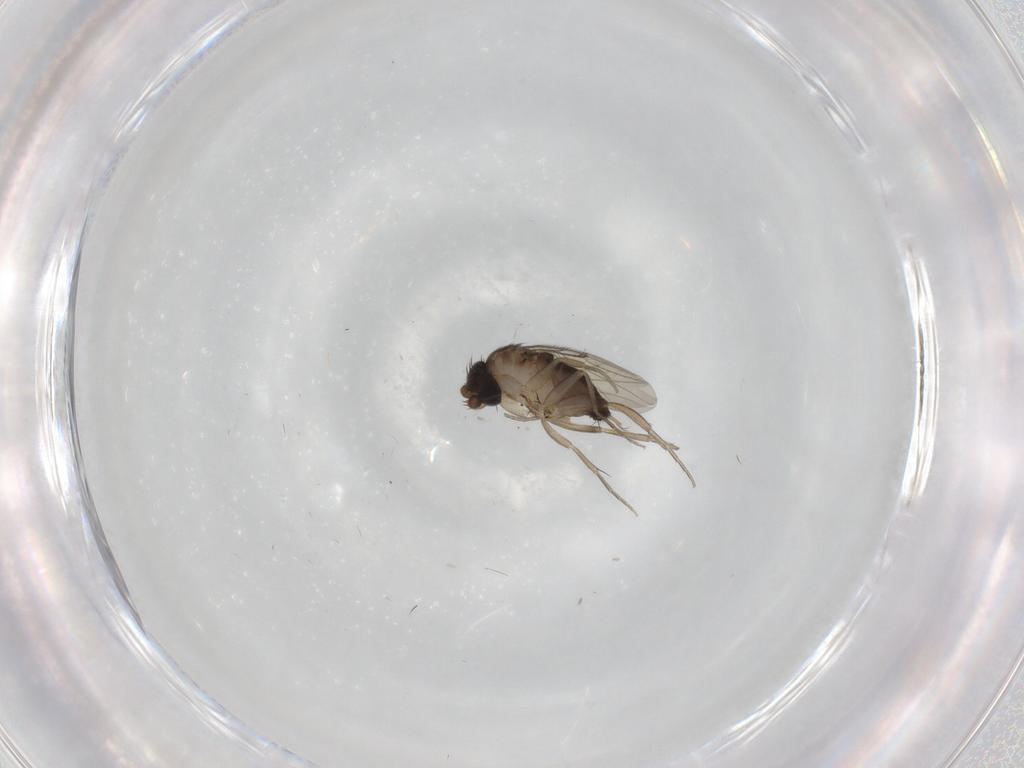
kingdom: Animalia
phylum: Arthropoda
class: Insecta
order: Diptera
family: Phoridae
